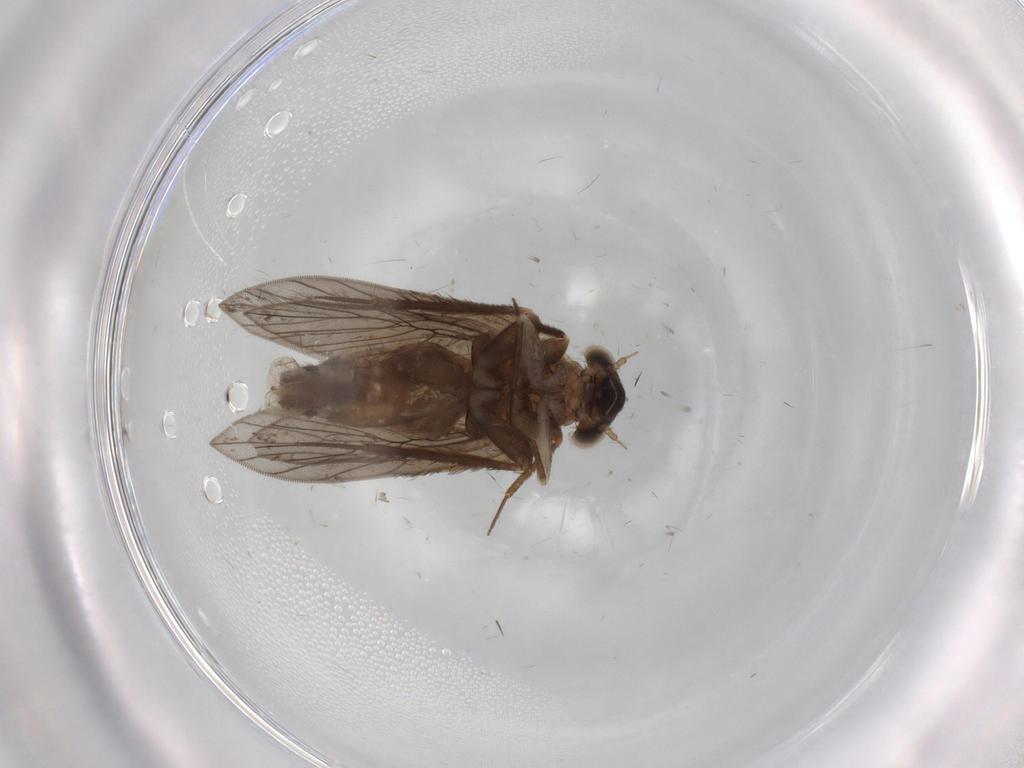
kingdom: Animalia
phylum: Arthropoda
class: Insecta
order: Psocodea
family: Lepidopsocidae
